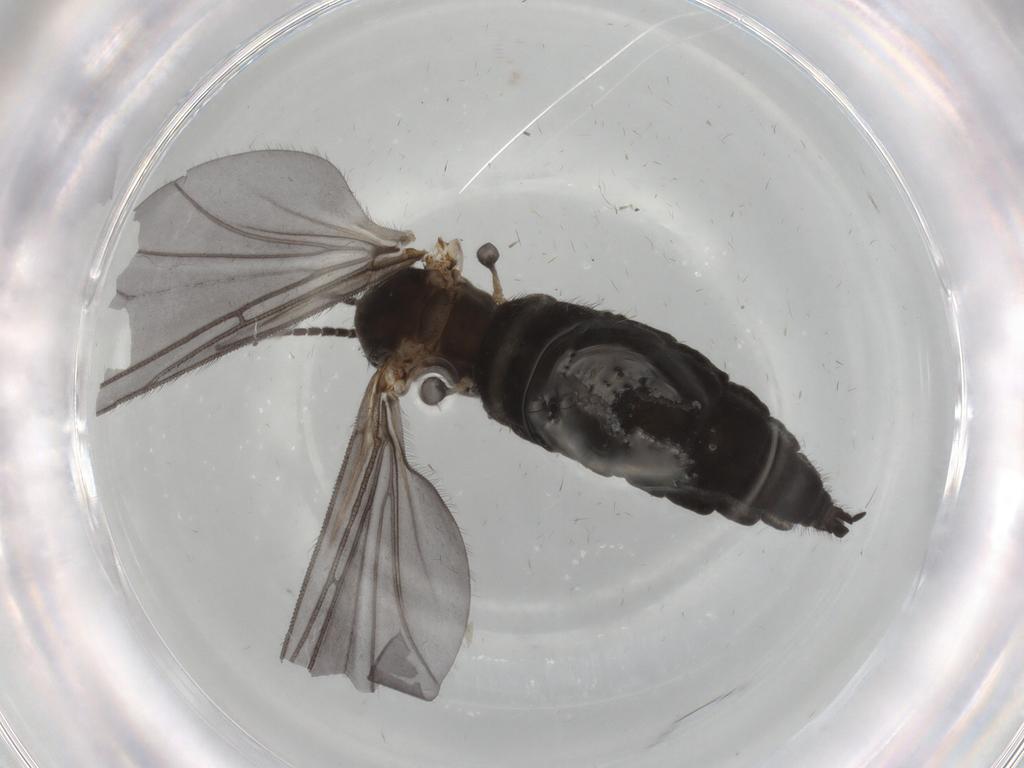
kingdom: Animalia
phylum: Arthropoda
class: Insecta
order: Diptera
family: Sciaridae
